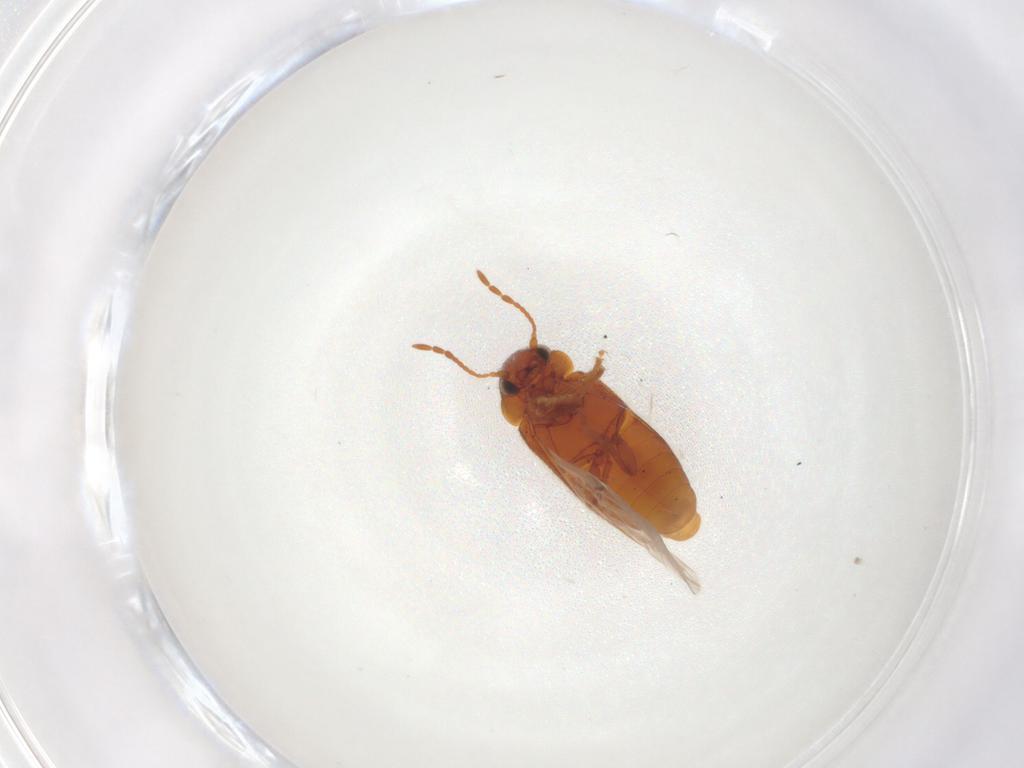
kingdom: Animalia
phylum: Arthropoda
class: Insecta
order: Coleoptera
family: Ptinidae
